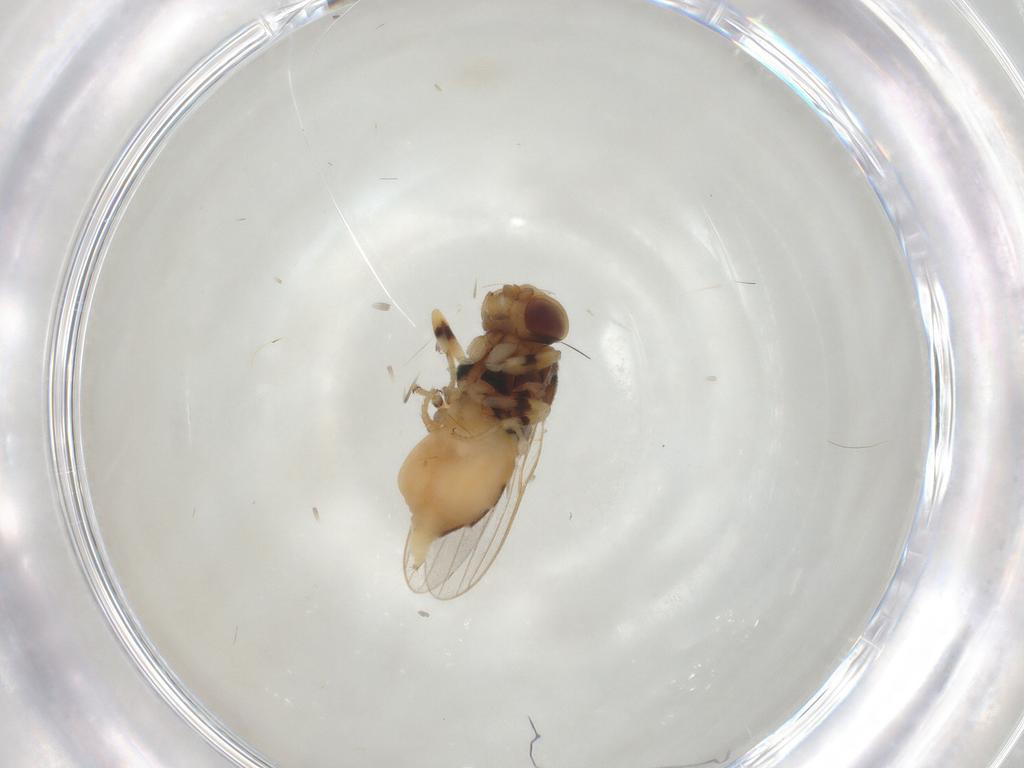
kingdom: Animalia
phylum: Arthropoda
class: Insecta
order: Diptera
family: Chloropidae
